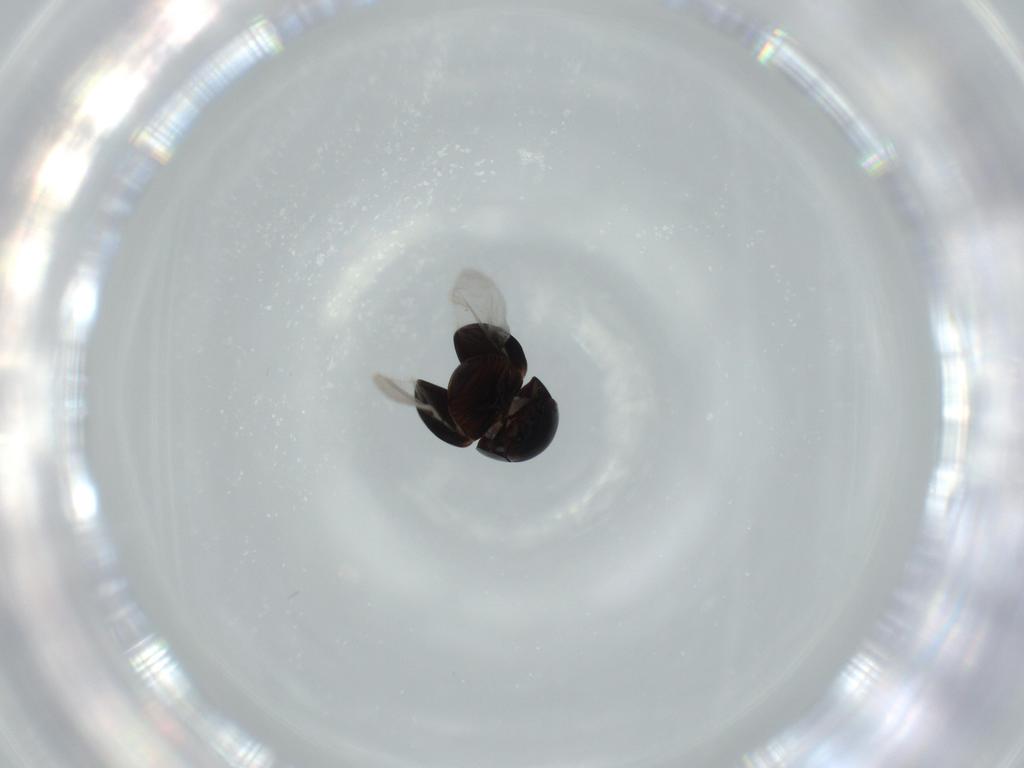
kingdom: Animalia
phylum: Arthropoda
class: Insecta
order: Coleoptera
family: Cybocephalidae
